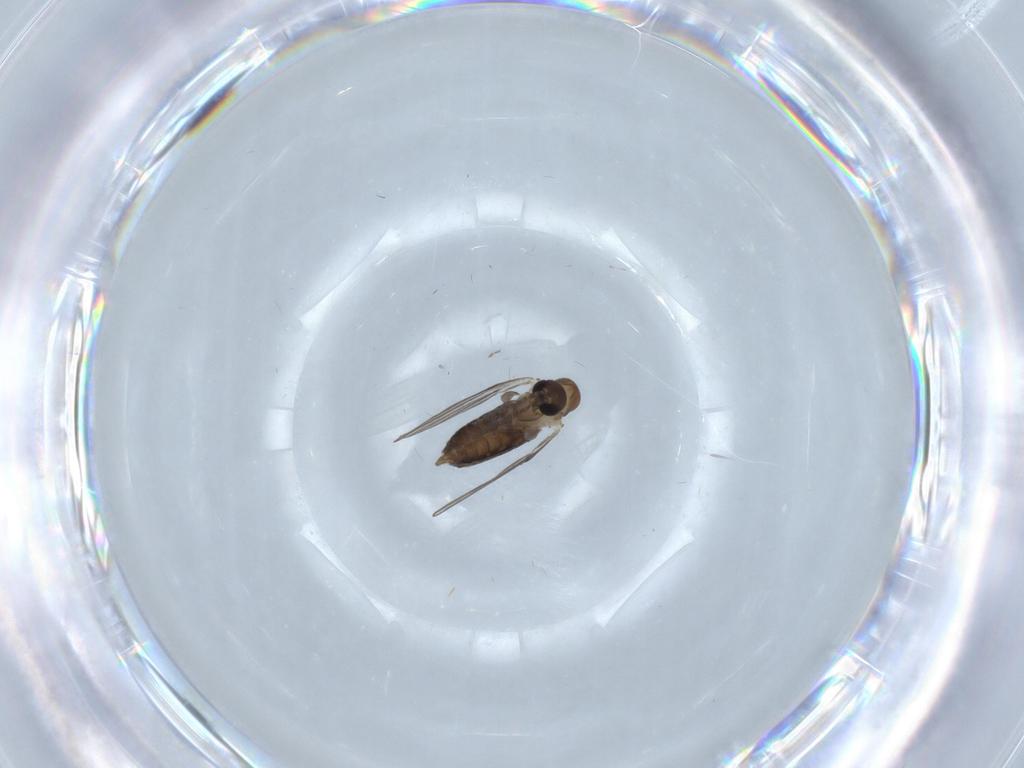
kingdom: Animalia
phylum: Arthropoda
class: Insecta
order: Diptera
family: Psychodidae
